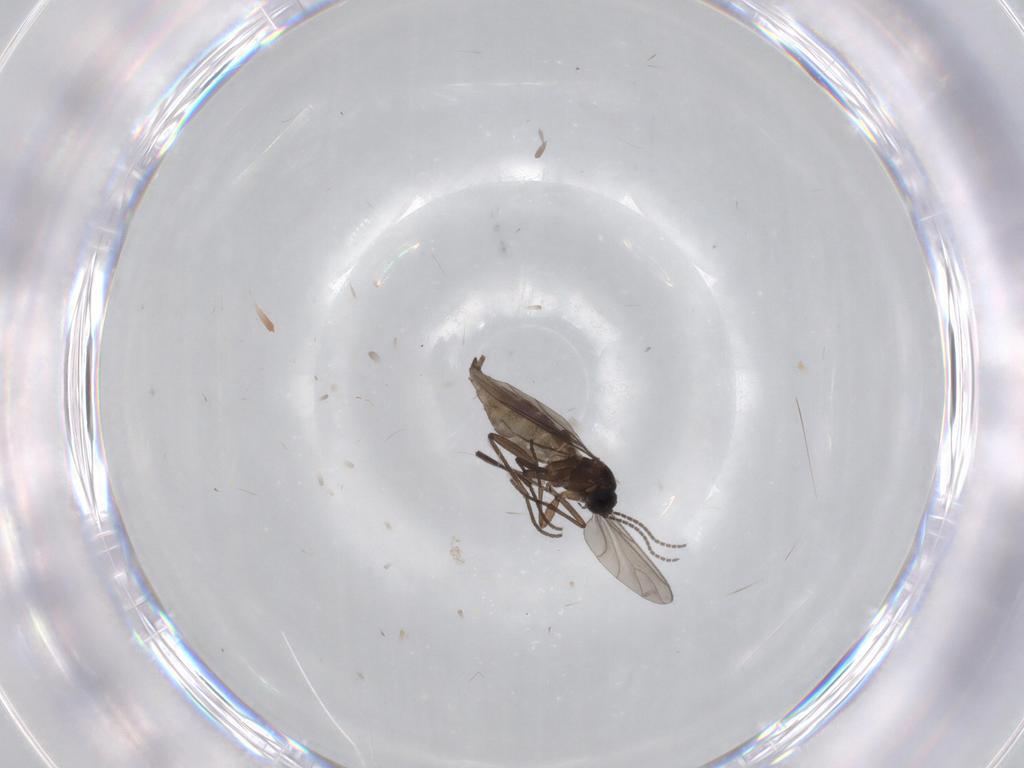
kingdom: Animalia
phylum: Arthropoda
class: Insecta
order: Diptera
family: Sciaridae
